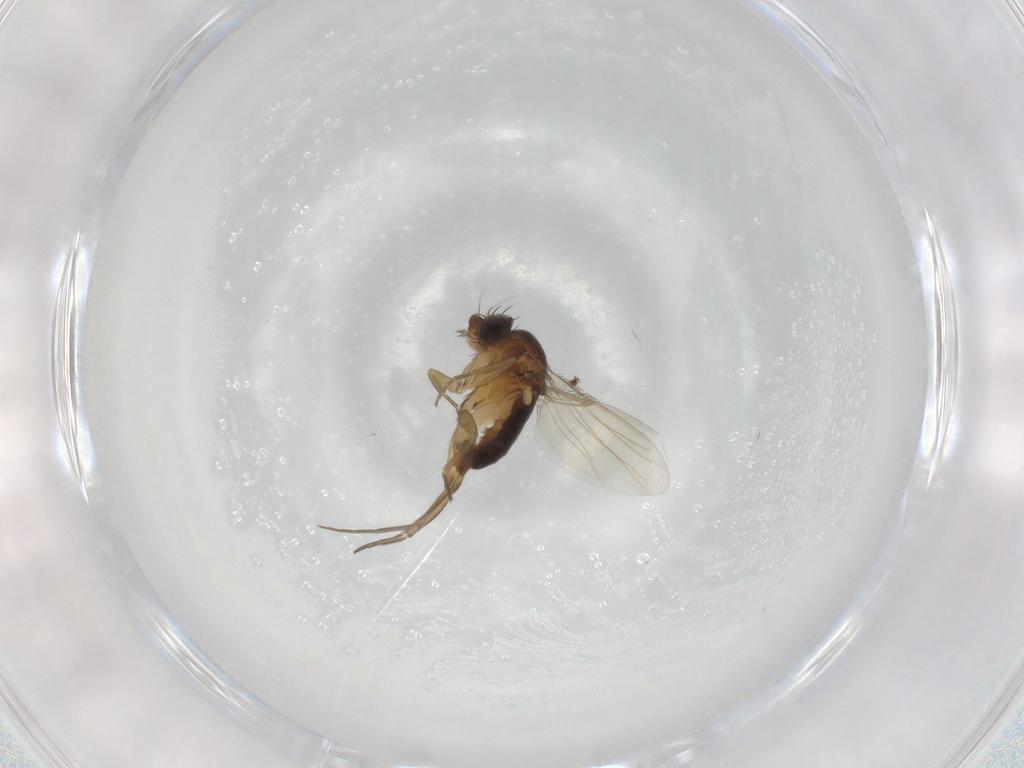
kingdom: Animalia
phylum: Arthropoda
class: Insecta
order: Diptera
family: Phoridae
